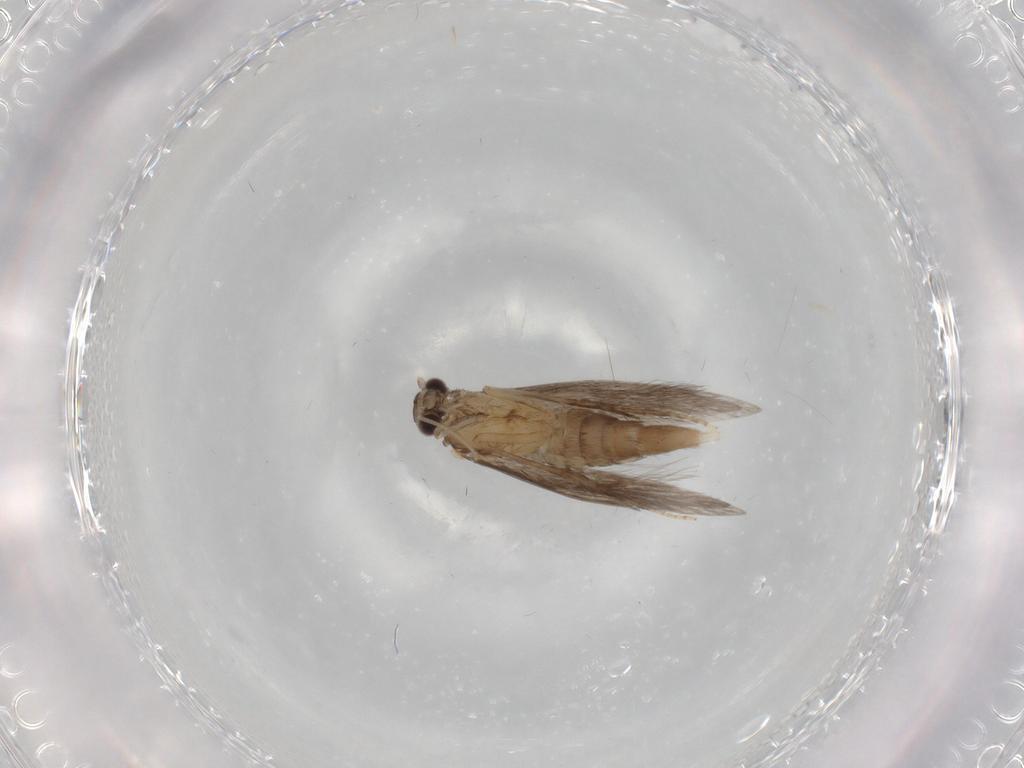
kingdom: Animalia
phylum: Arthropoda
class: Insecta
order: Trichoptera
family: Hydroptilidae
